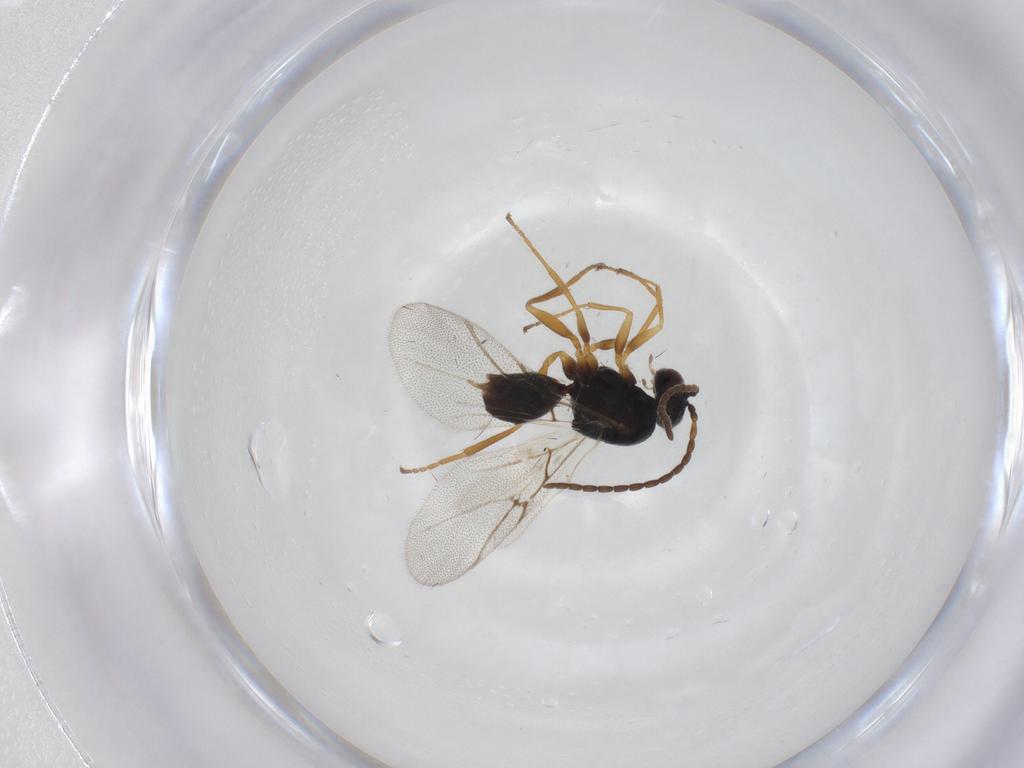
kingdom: Animalia
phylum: Arthropoda
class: Insecta
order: Hymenoptera
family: Cynipidae
